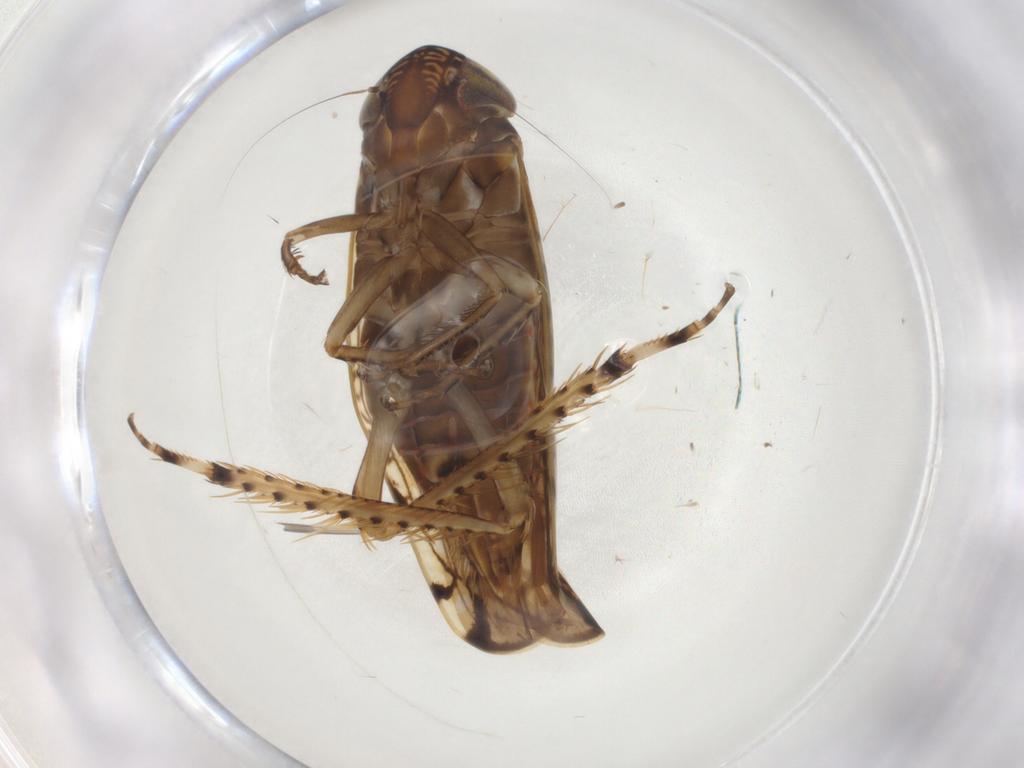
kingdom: Animalia
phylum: Arthropoda
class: Insecta
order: Hemiptera
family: Cicadellidae
